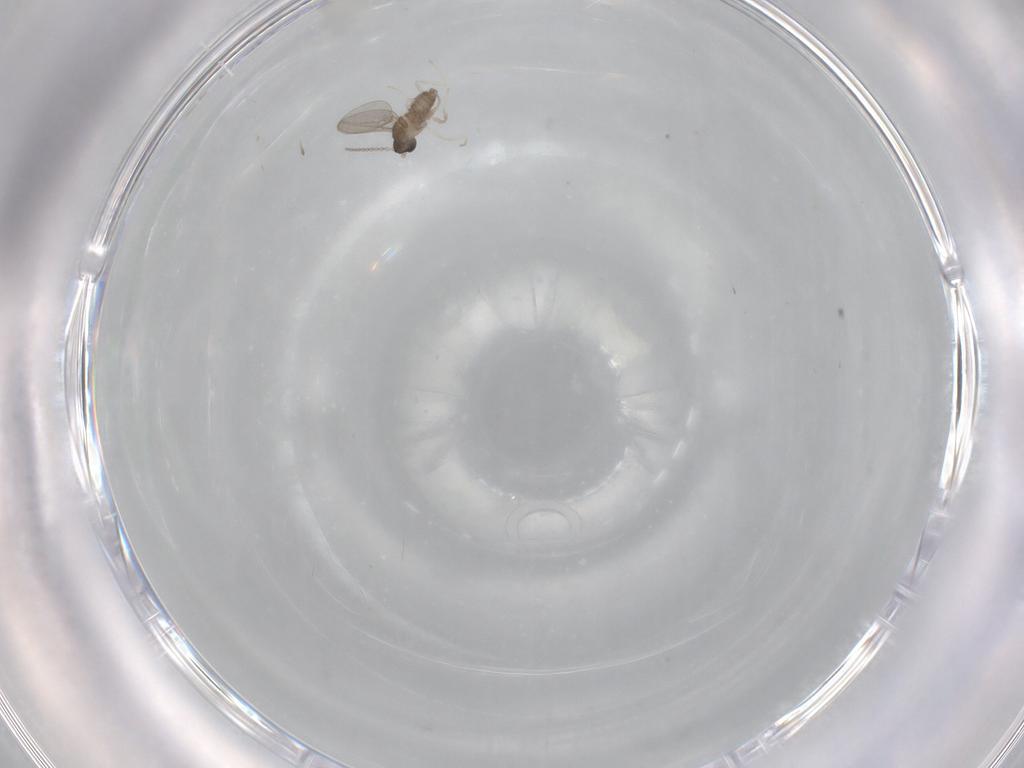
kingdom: Animalia
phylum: Arthropoda
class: Insecta
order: Diptera
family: Cecidomyiidae
